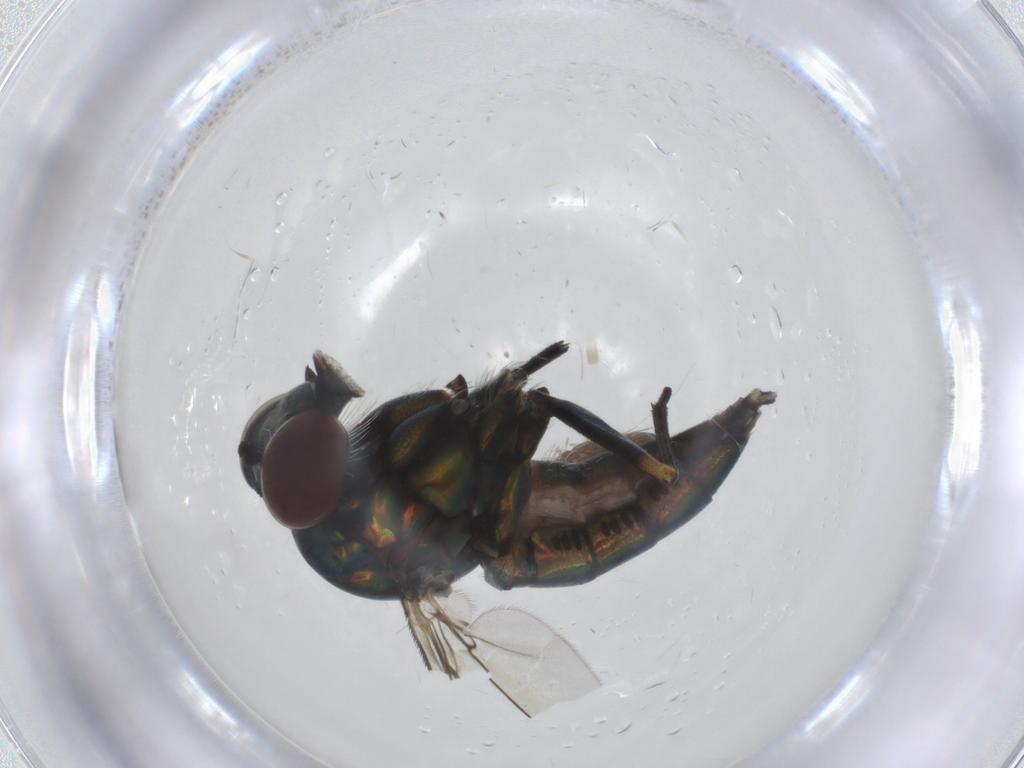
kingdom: Animalia
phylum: Arthropoda
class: Insecta
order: Diptera
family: Dolichopodidae
